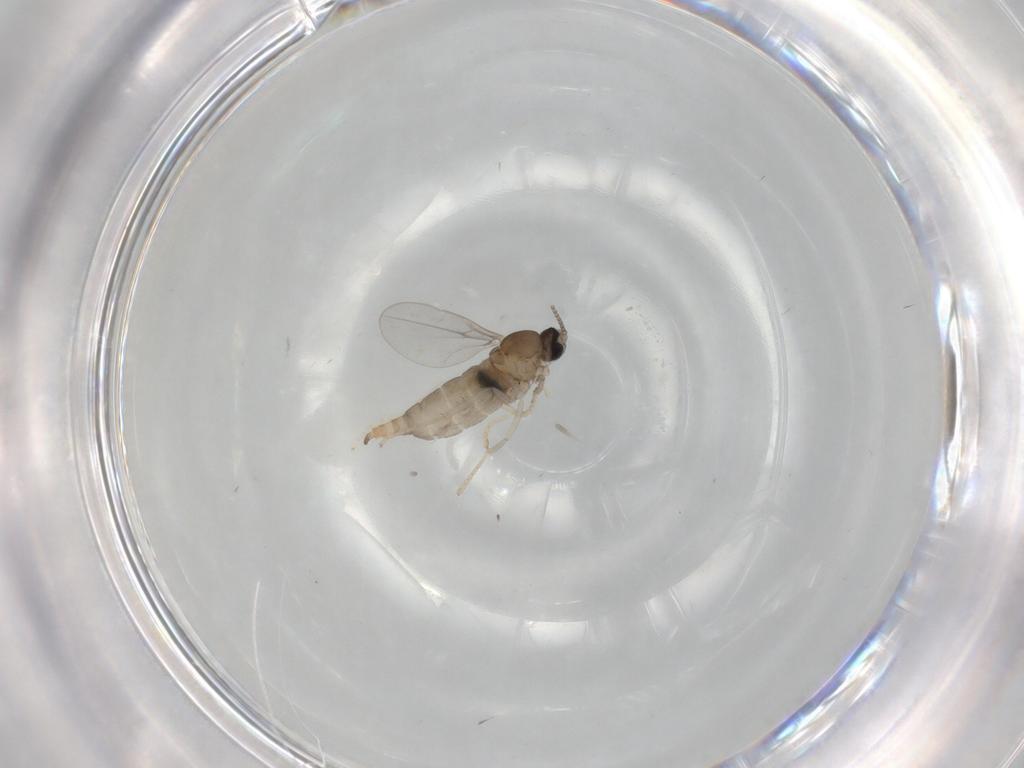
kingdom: Animalia
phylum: Arthropoda
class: Insecta
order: Diptera
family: Cecidomyiidae
